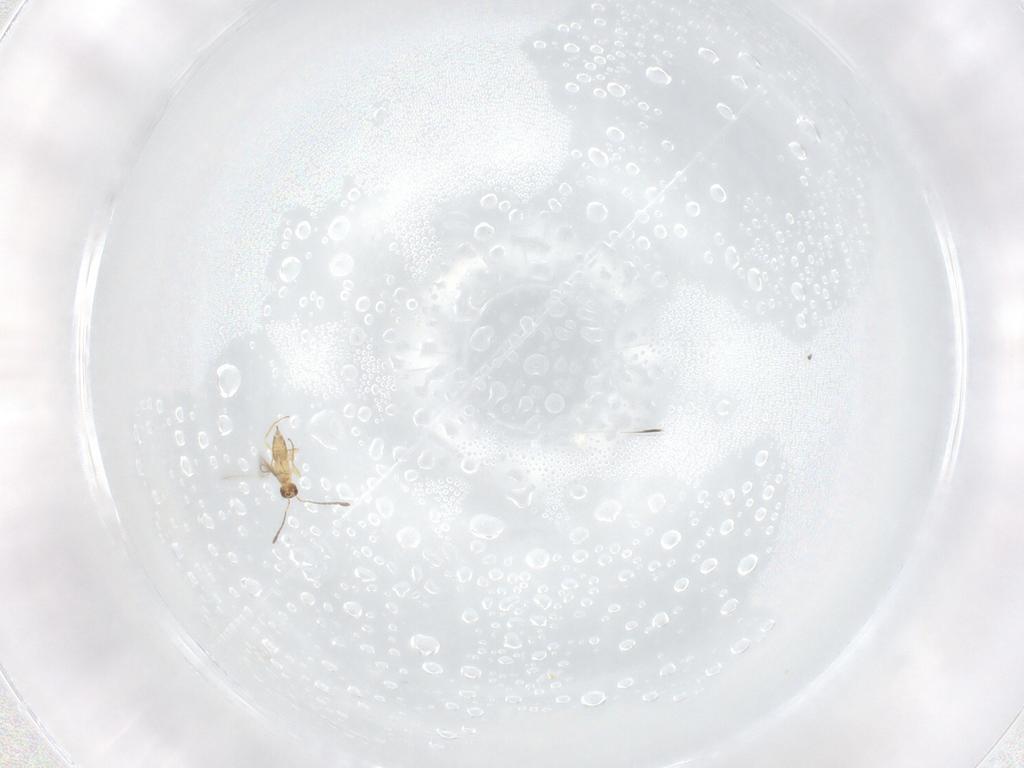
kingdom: Animalia
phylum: Arthropoda
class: Insecta
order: Hymenoptera
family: Mymaridae
